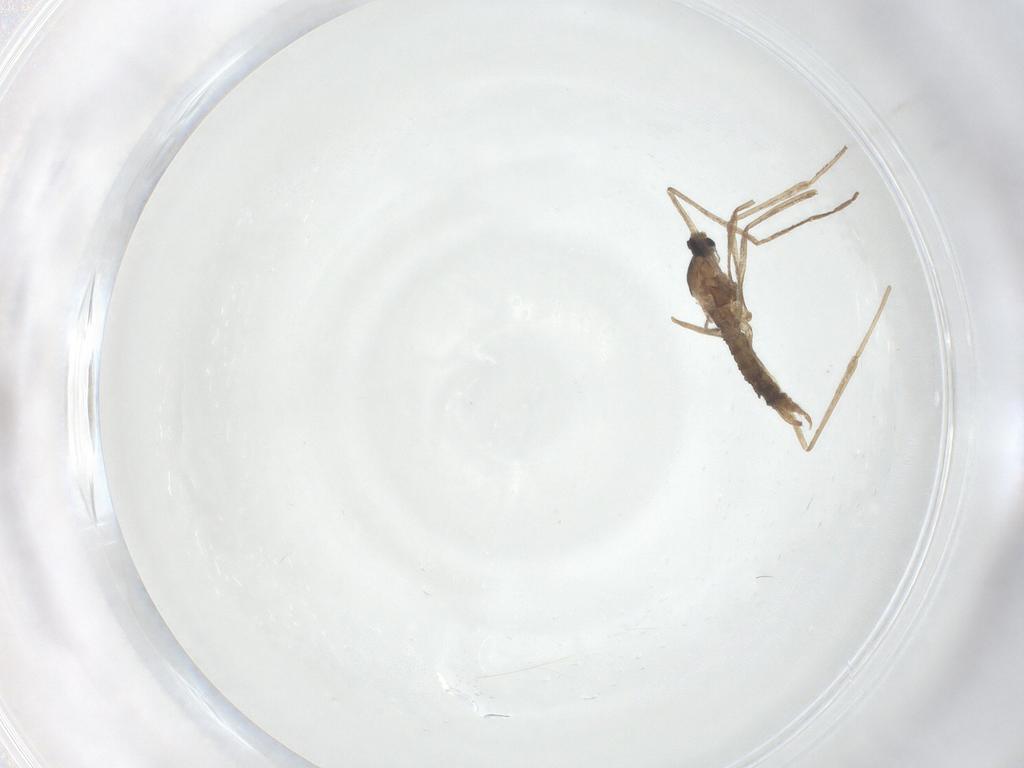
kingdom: Animalia
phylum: Arthropoda
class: Insecta
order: Diptera
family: Cecidomyiidae
